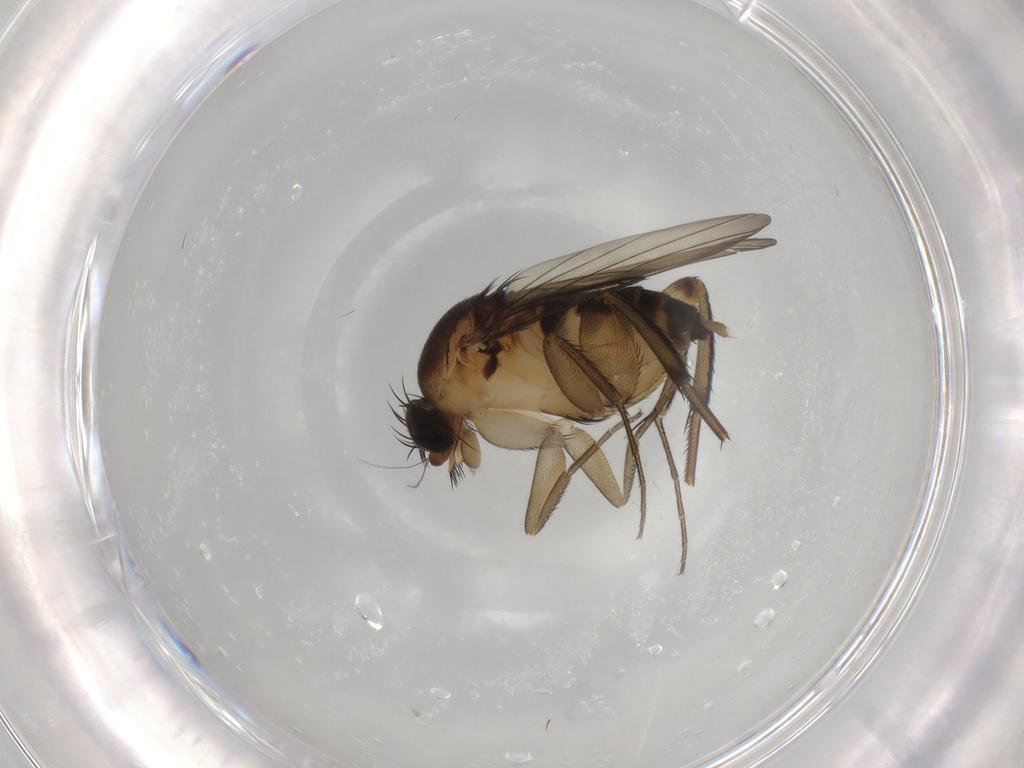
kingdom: Animalia
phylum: Arthropoda
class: Insecta
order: Diptera
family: Phoridae
